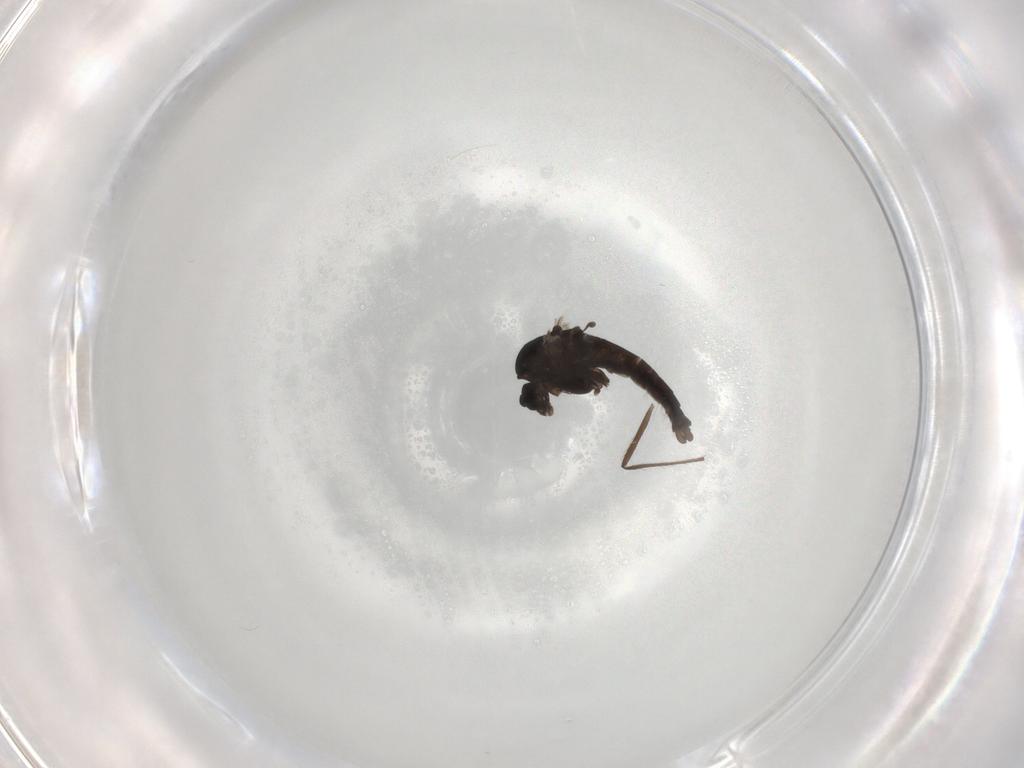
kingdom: Animalia
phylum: Arthropoda
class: Insecta
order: Diptera
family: Chironomidae
